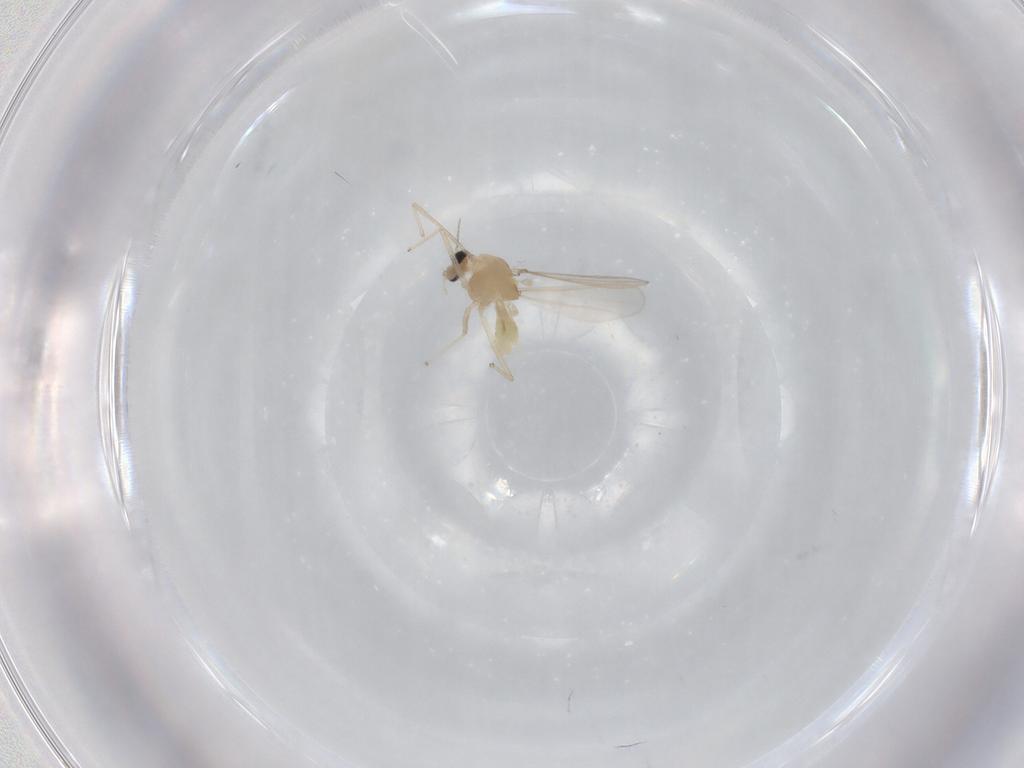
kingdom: Animalia
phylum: Arthropoda
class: Insecta
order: Diptera
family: Chironomidae
